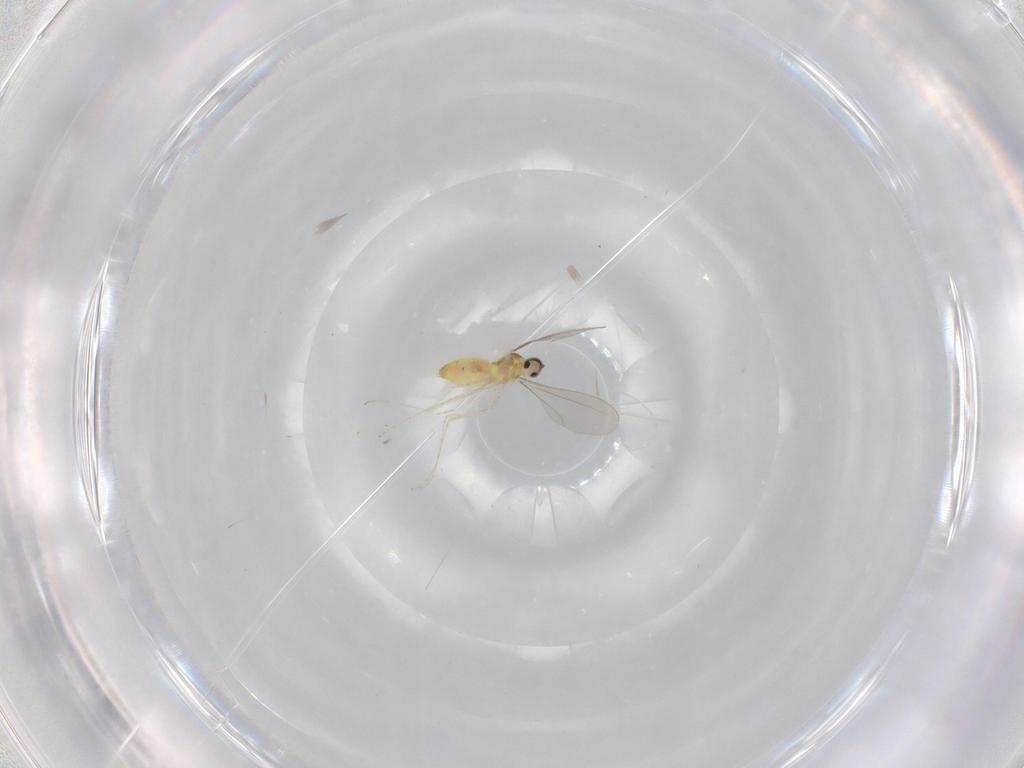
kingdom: Animalia
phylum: Arthropoda
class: Insecta
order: Diptera
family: Cecidomyiidae
